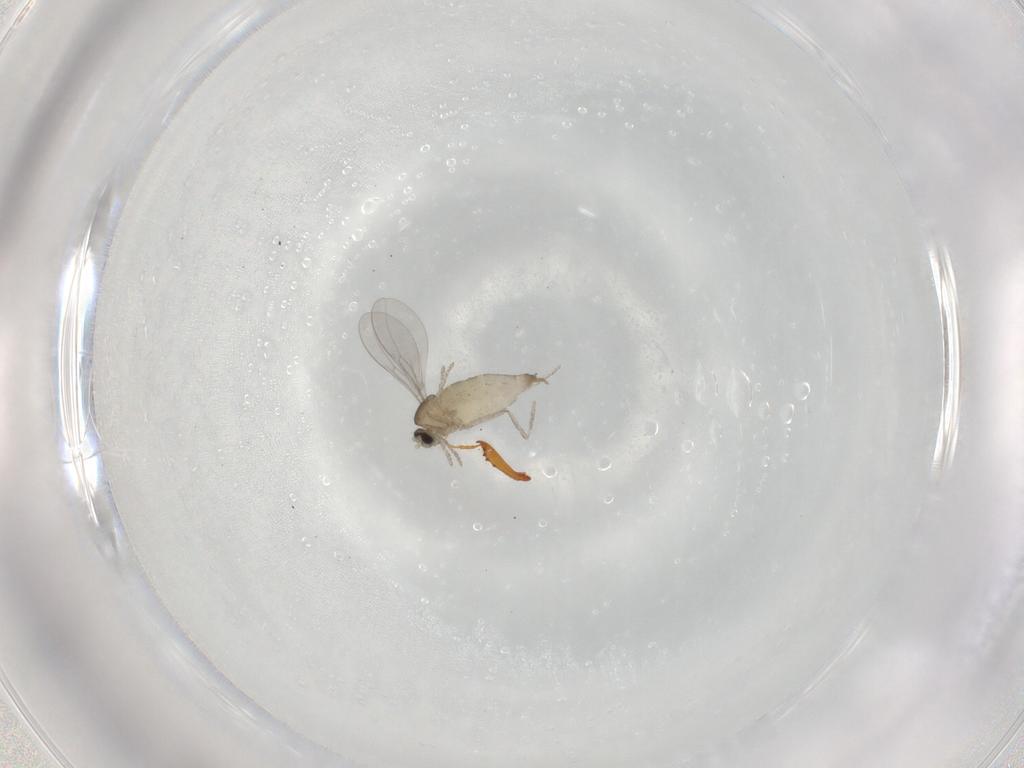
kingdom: Animalia
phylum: Arthropoda
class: Insecta
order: Diptera
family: Cecidomyiidae
